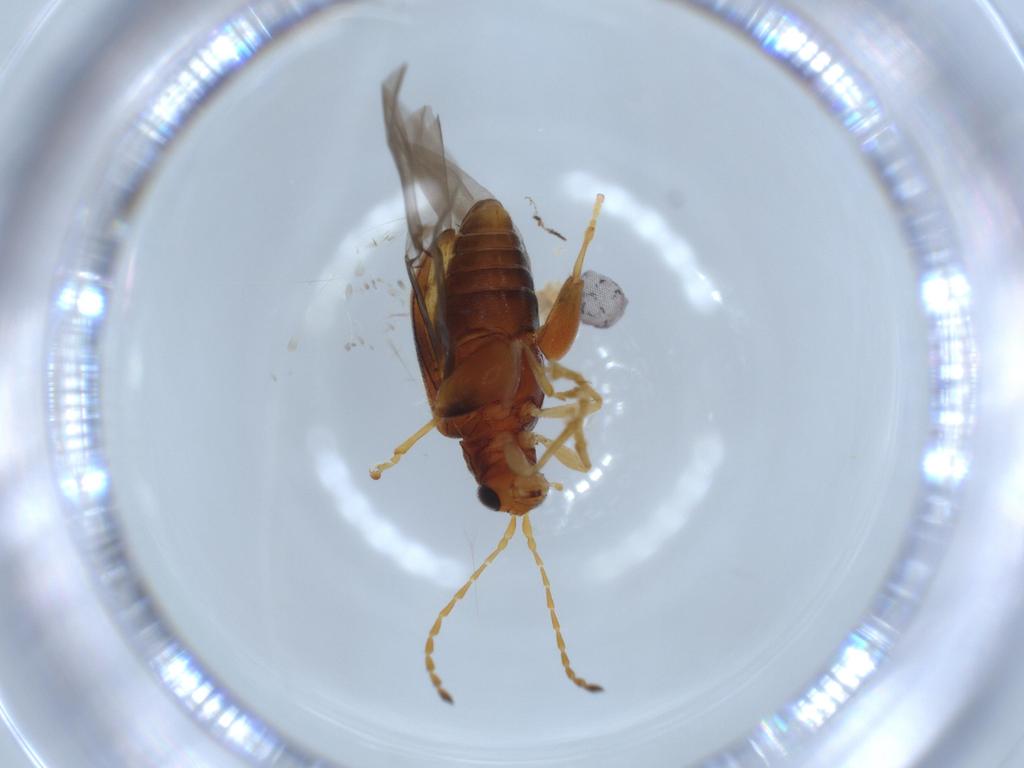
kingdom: Animalia
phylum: Arthropoda
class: Insecta
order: Coleoptera
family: Chrysomelidae
